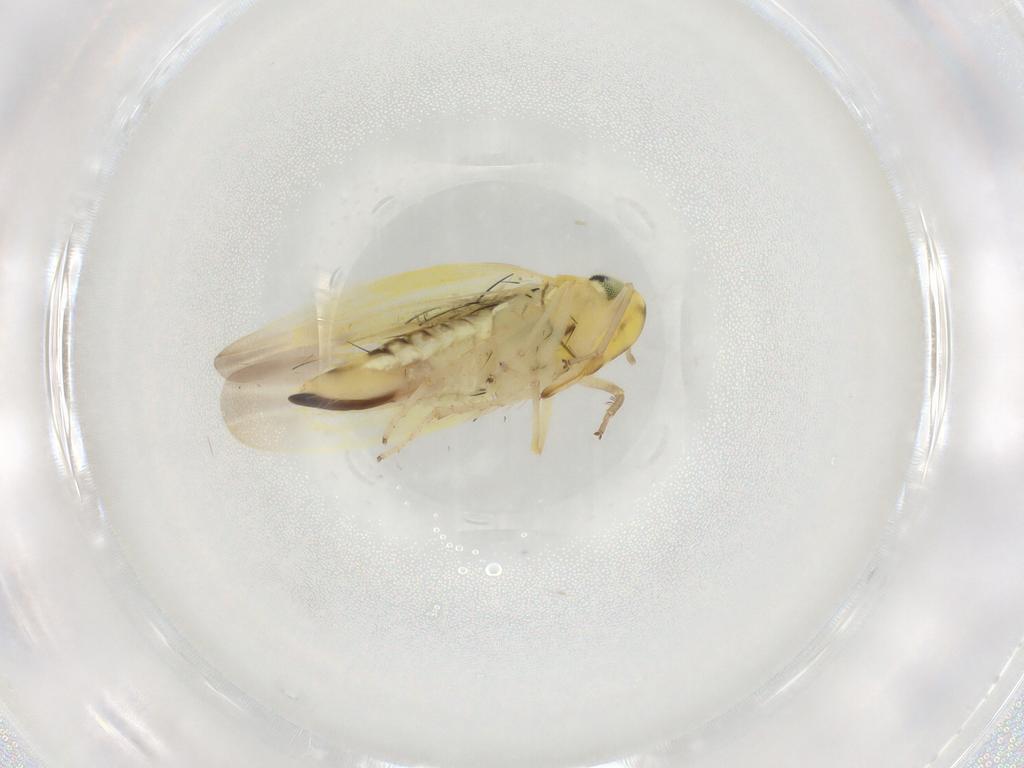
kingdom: Animalia
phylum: Arthropoda
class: Insecta
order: Hemiptera
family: Cicadellidae
